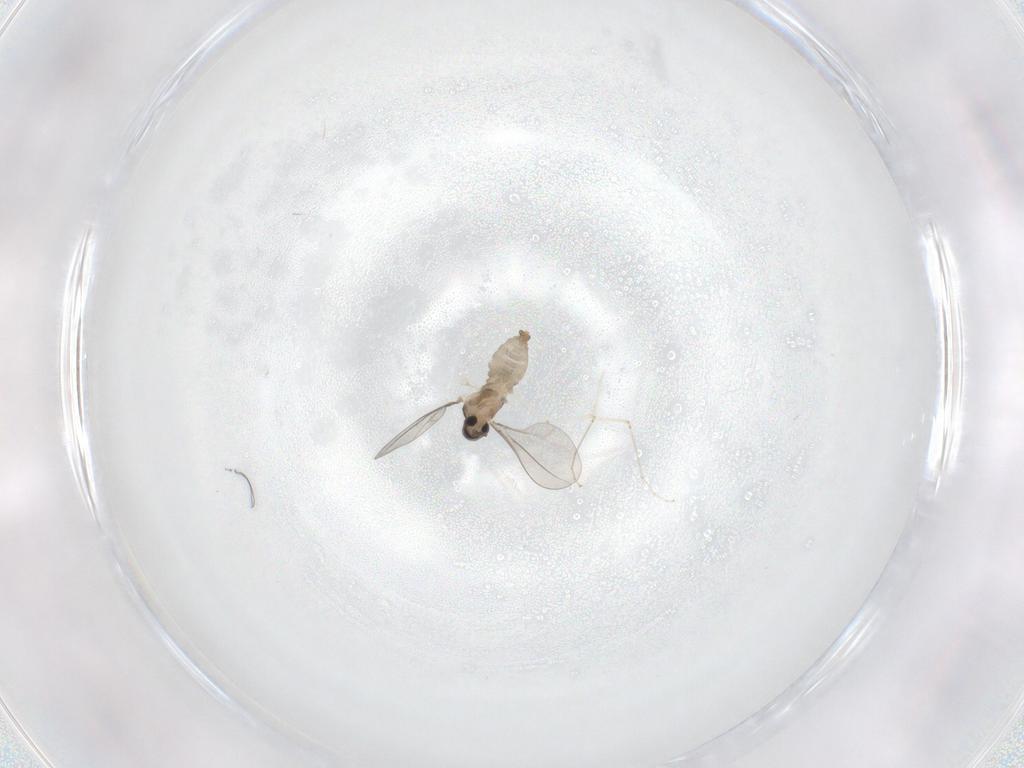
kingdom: Animalia
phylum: Arthropoda
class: Insecta
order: Diptera
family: Cecidomyiidae
